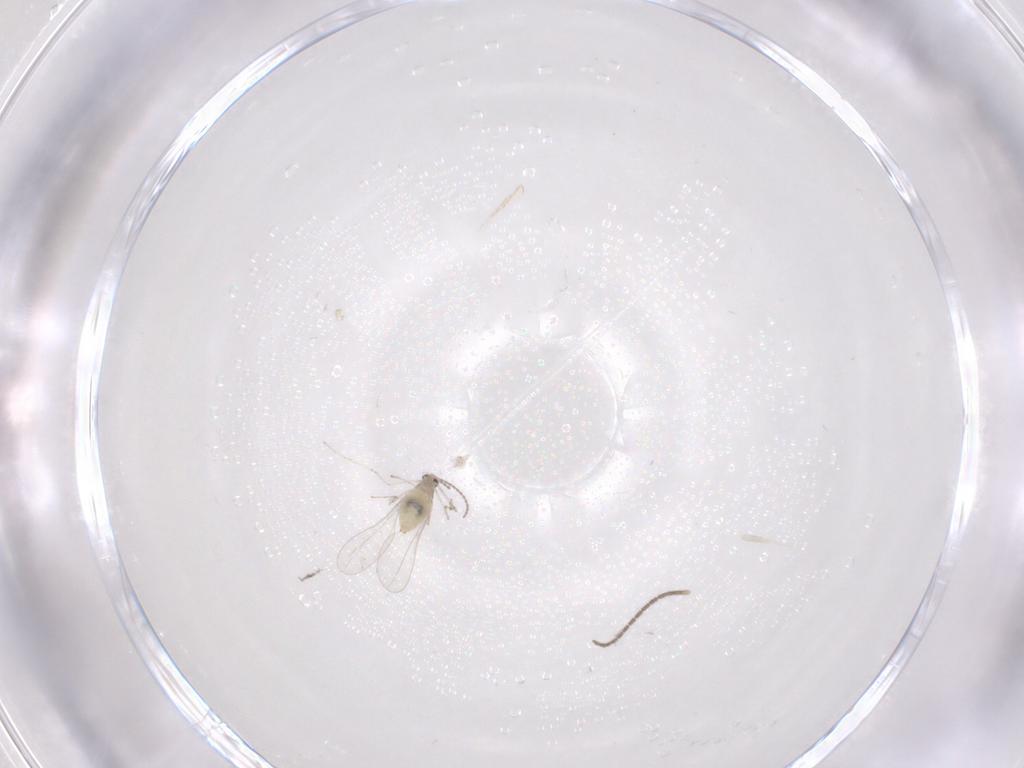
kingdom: Animalia
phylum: Arthropoda
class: Insecta
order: Diptera
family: Cecidomyiidae
